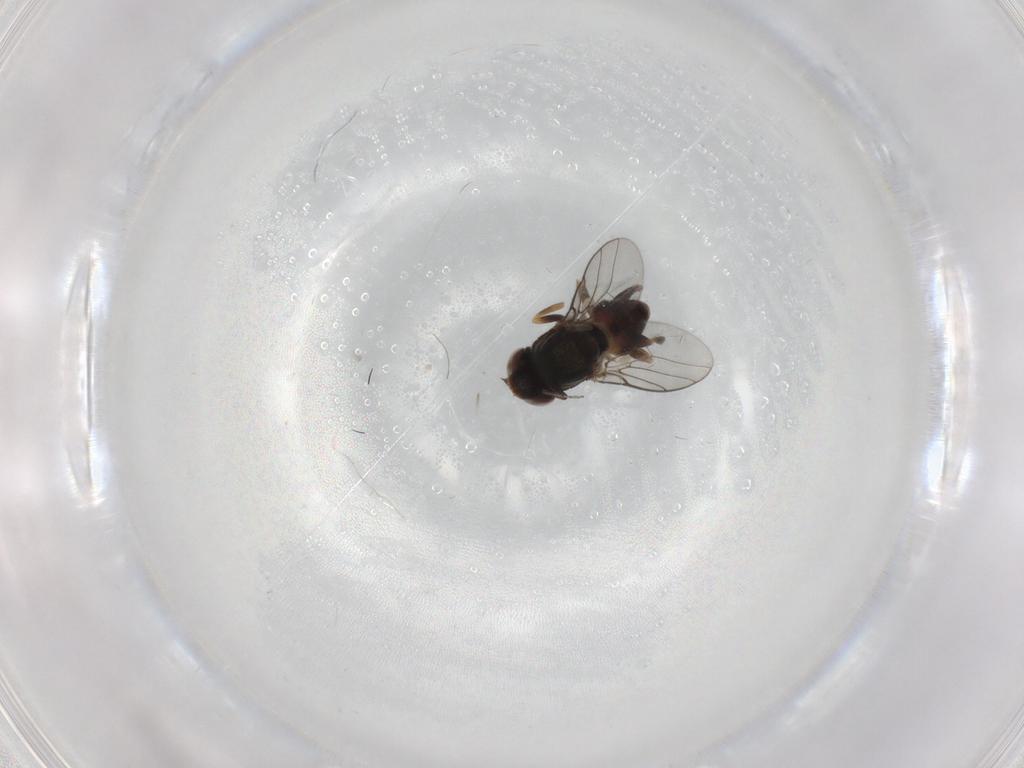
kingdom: Animalia
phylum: Arthropoda
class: Insecta
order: Diptera
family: Chloropidae
